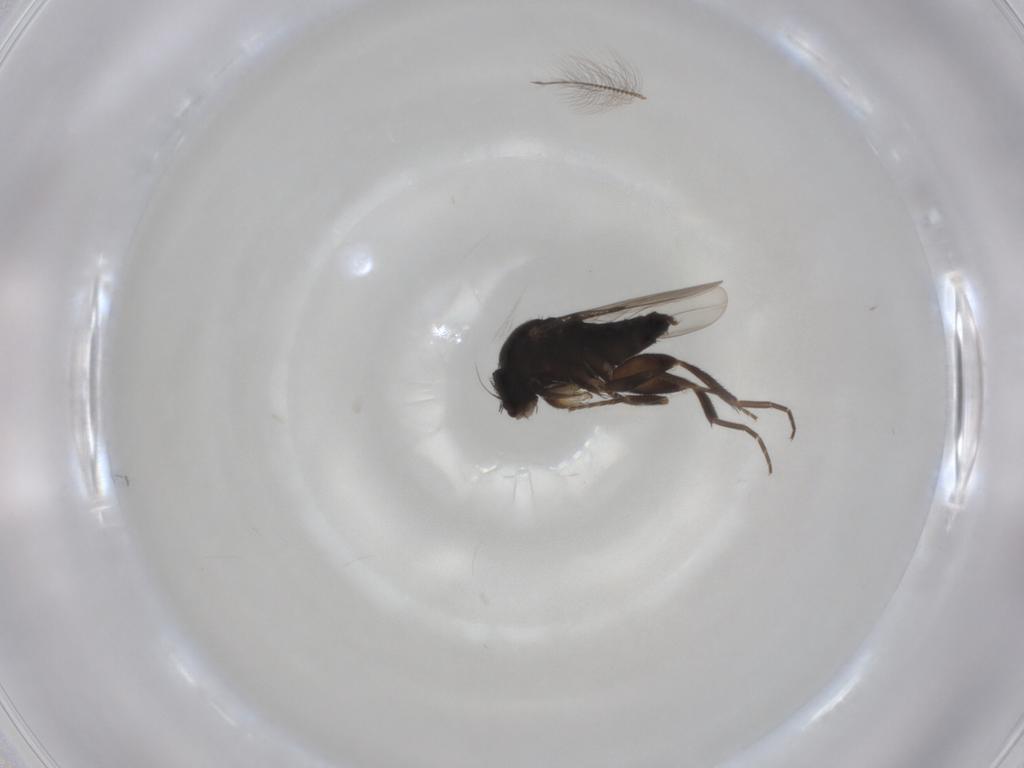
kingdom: Animalia
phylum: Arthropoda
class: Insecta
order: Diptera
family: Phoridae
